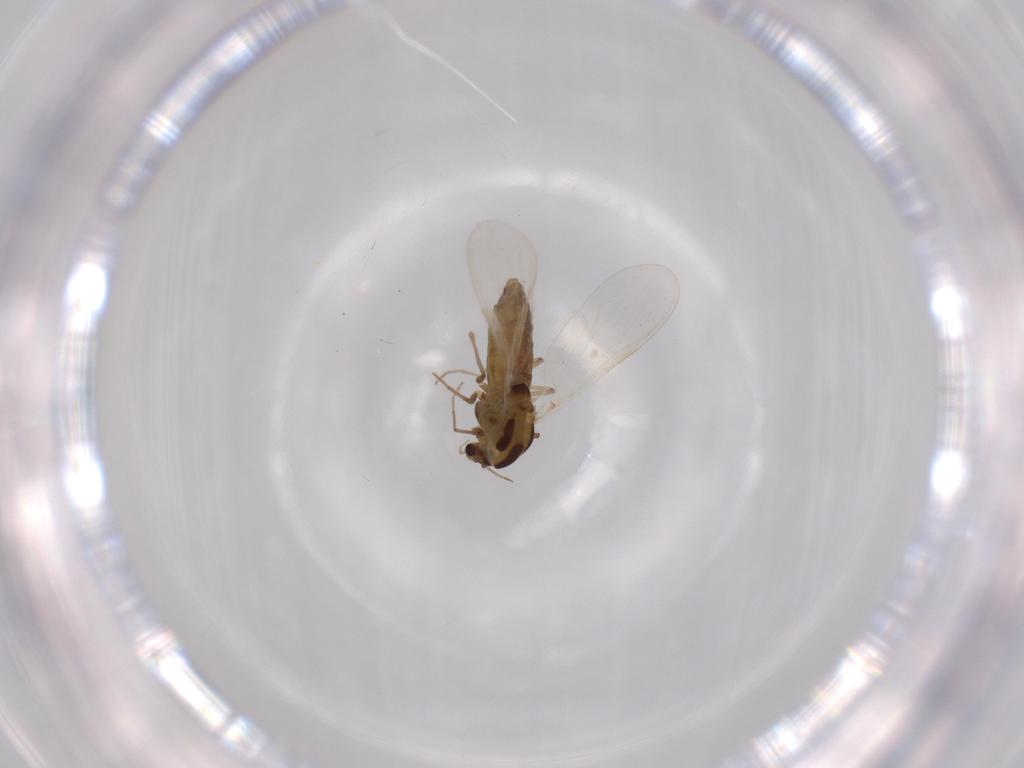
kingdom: Animalia
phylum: Arthropoda
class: Insecta
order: Diptera
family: Chironomidae
